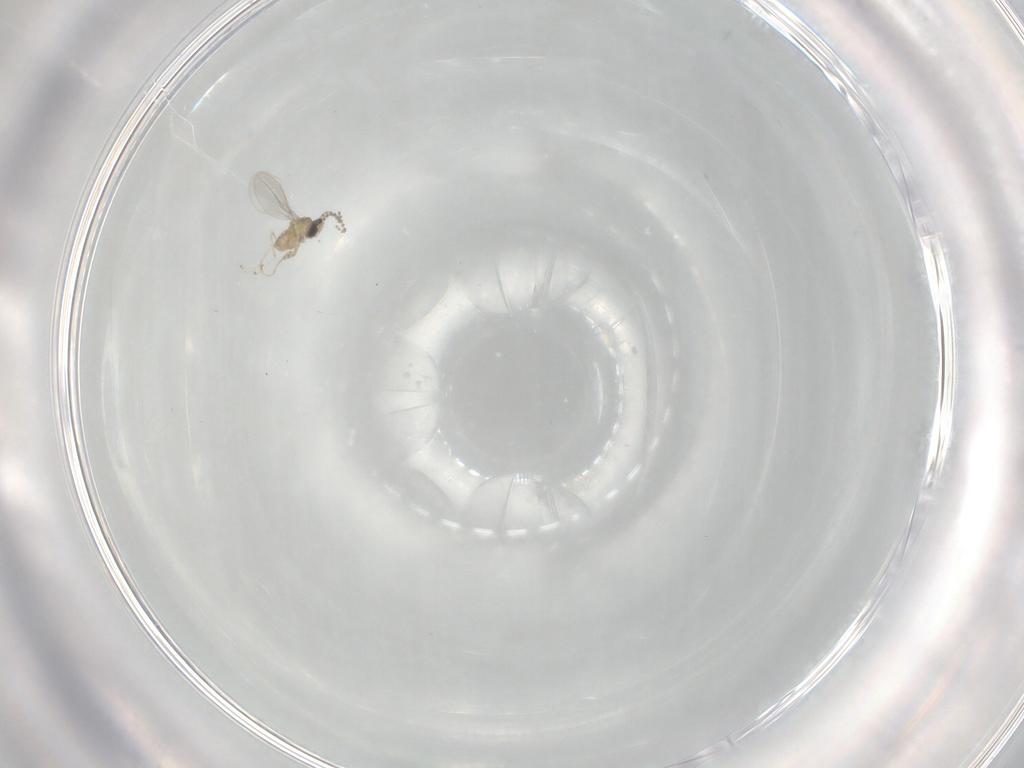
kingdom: Animalia
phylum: Arthropoda
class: Insecta
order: Diptera
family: Cecidomyiidae
